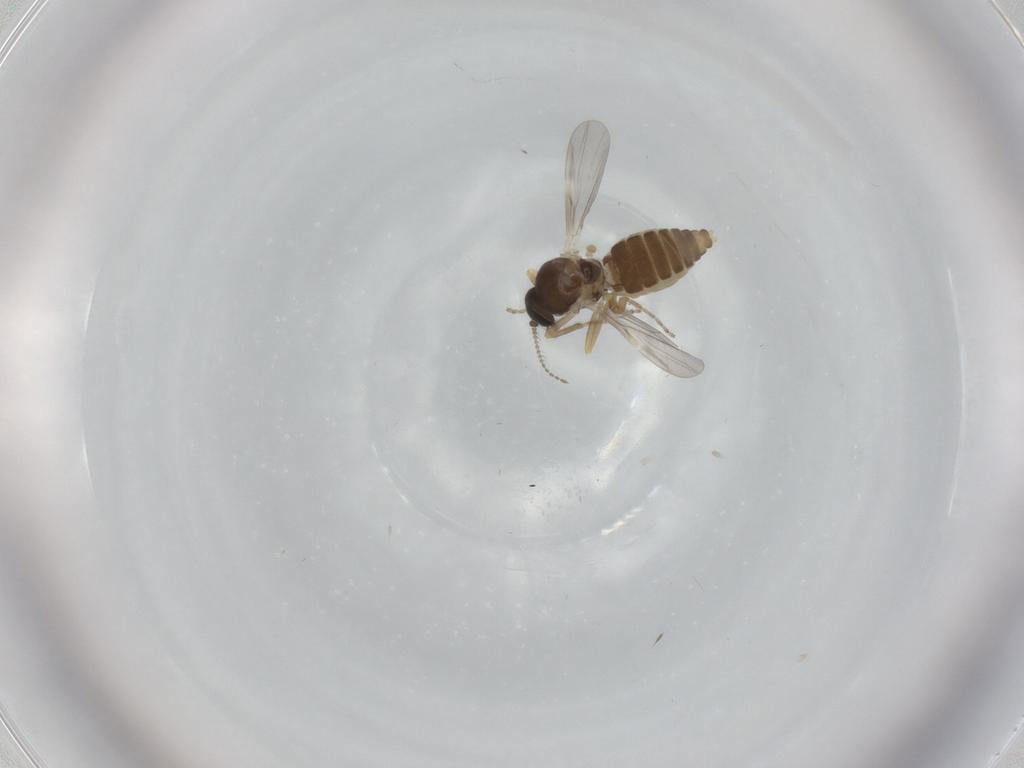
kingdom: Animalia
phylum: Arthropoda
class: Insecta
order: Diptera
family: Ceratopogonidae
